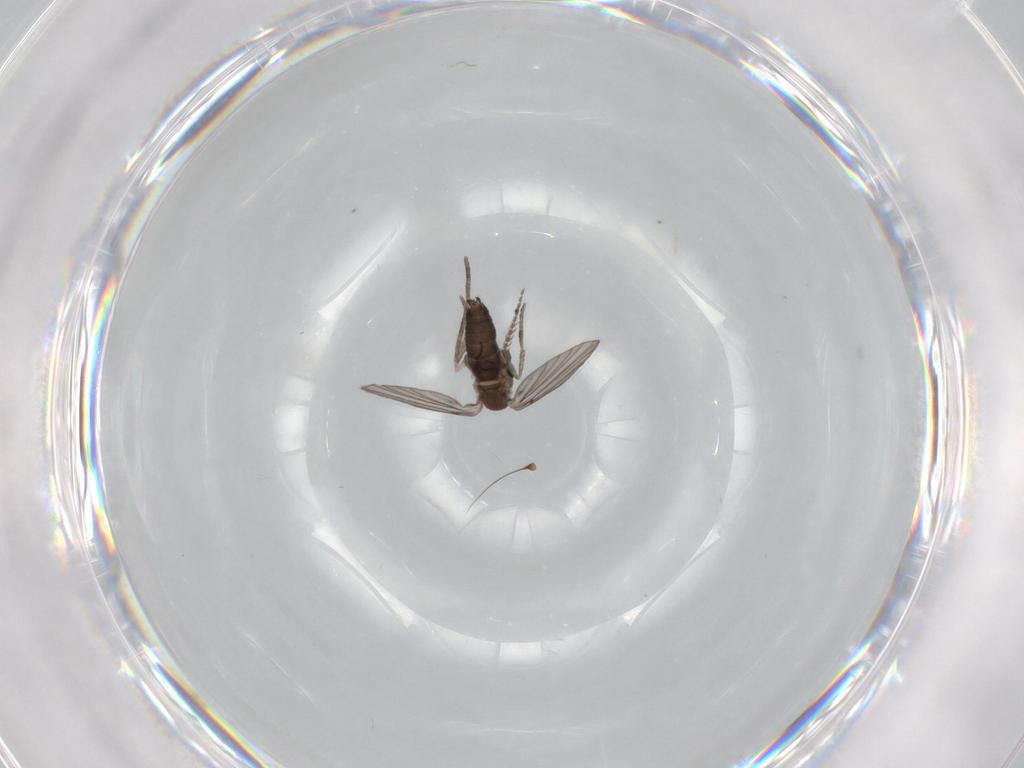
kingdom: Animalia
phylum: Arthropoda
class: Insecta
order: Diptera
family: Dolichopodidae
